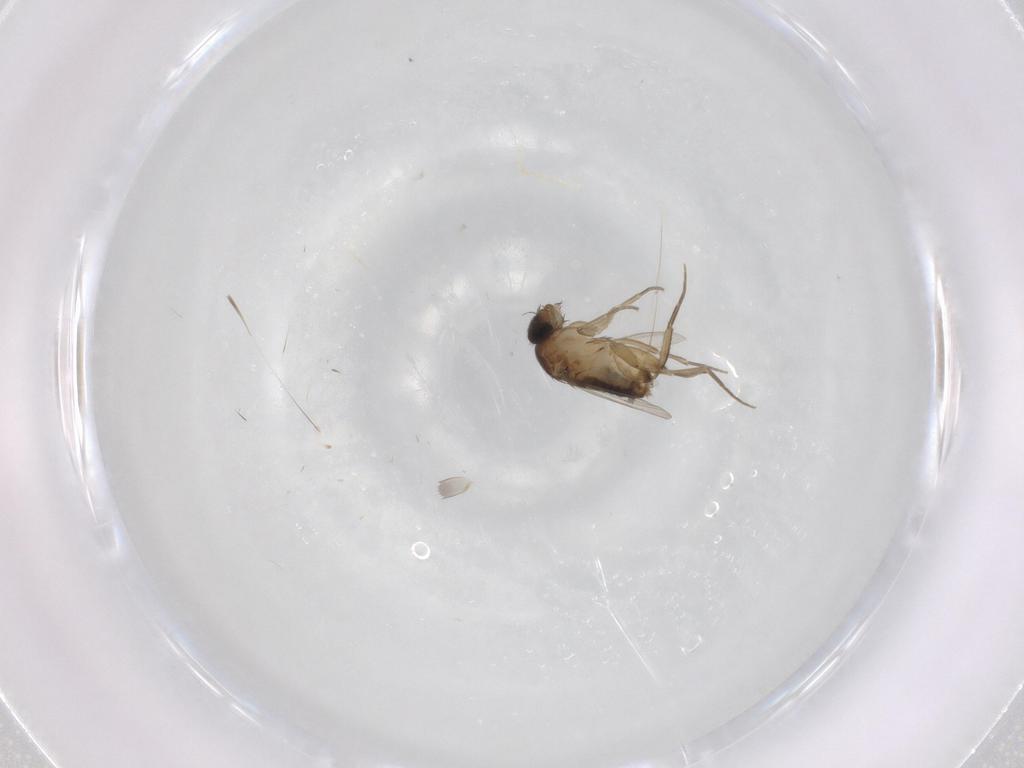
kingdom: Animalia
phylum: Arthropoda
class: Insecta
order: Diptera
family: Phoridae
